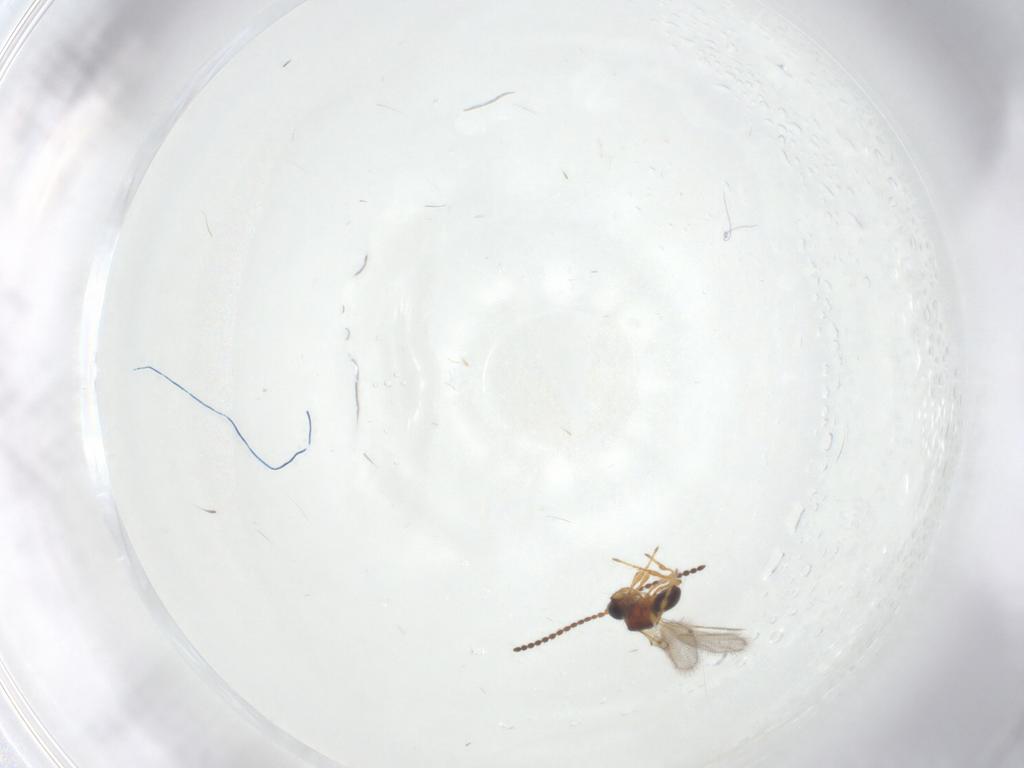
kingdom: Animalia
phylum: Arthropoda
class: Insecta
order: Hymenoptera
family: Diapriidae
